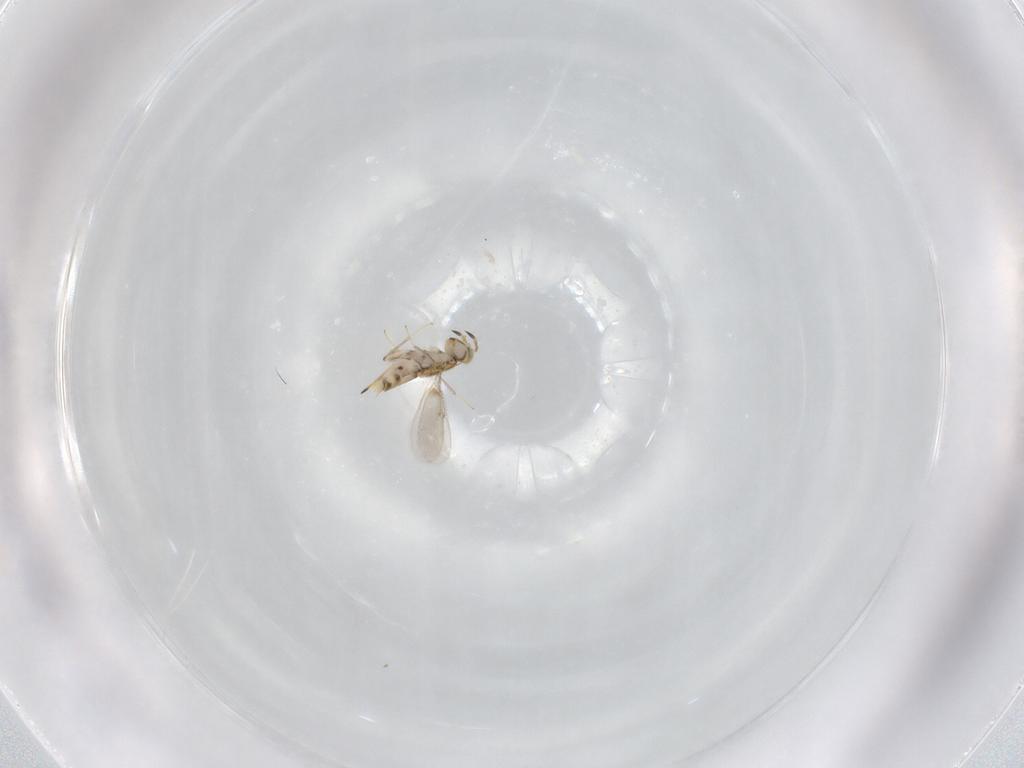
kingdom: Animalia
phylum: Arthropoda
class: Insecta
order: Hymenoptera
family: Aphelinidae
